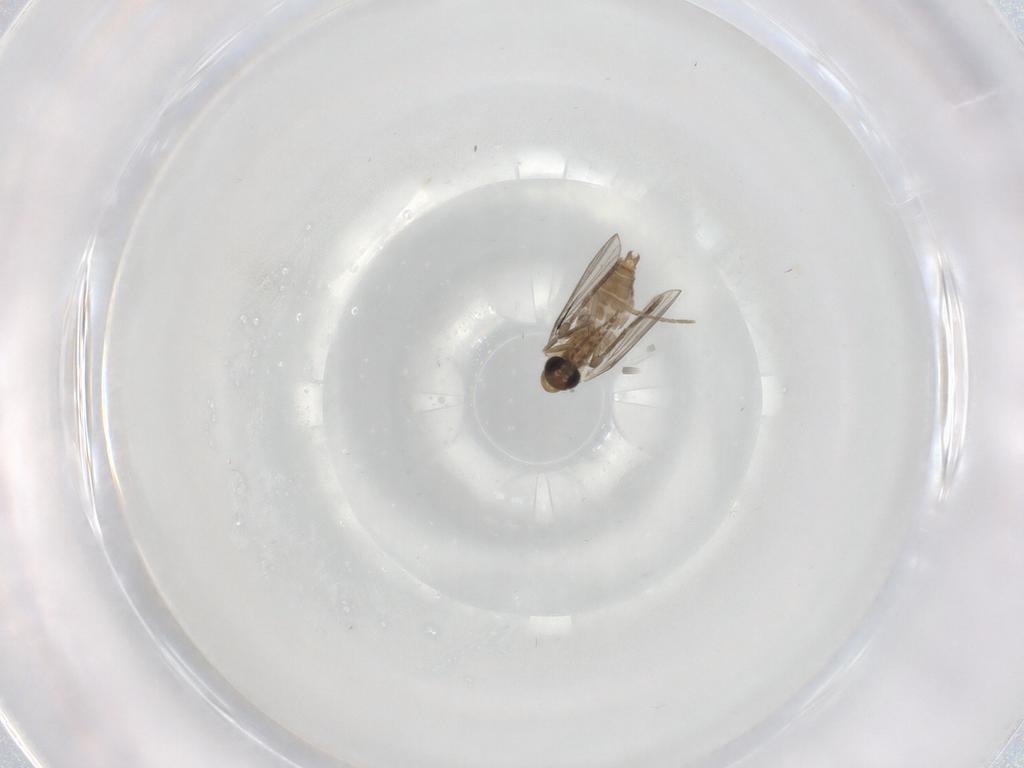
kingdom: Animalia
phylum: Arthropoda
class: Insecta
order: Diptera
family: Psychodidae
